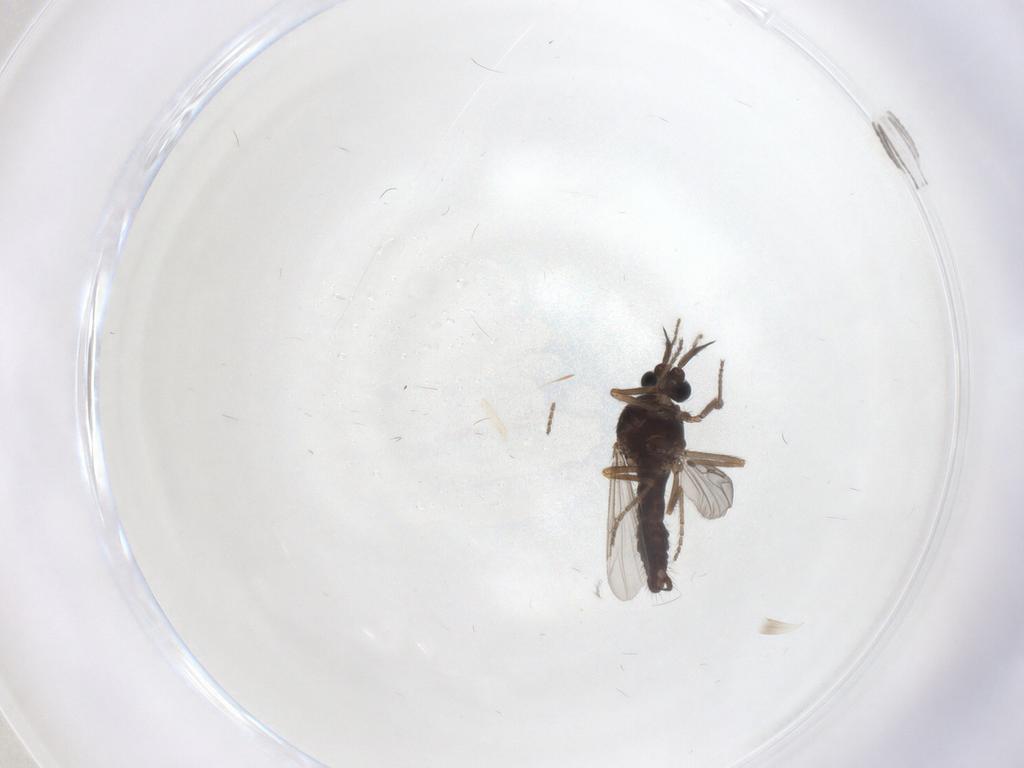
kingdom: Animalia
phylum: Arthropoda
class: Insecta
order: Diptera
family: Ceratopogonidae
